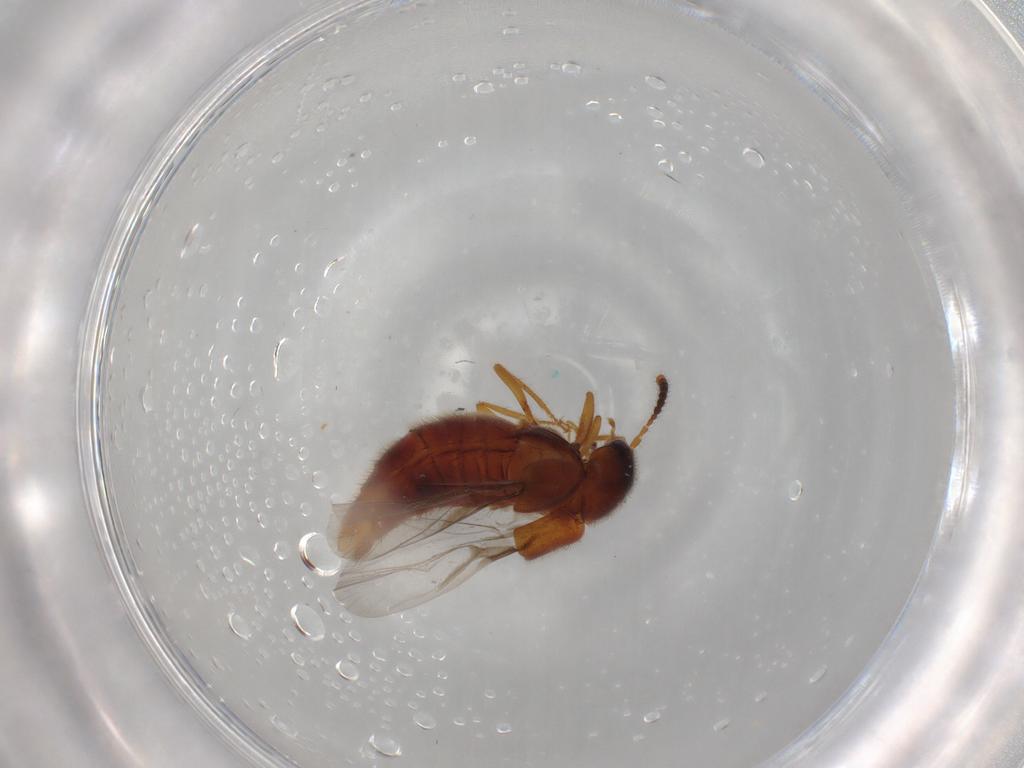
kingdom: Animalia
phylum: Arthropoda
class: Insecta
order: Coleoptera
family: Staphylinidae
